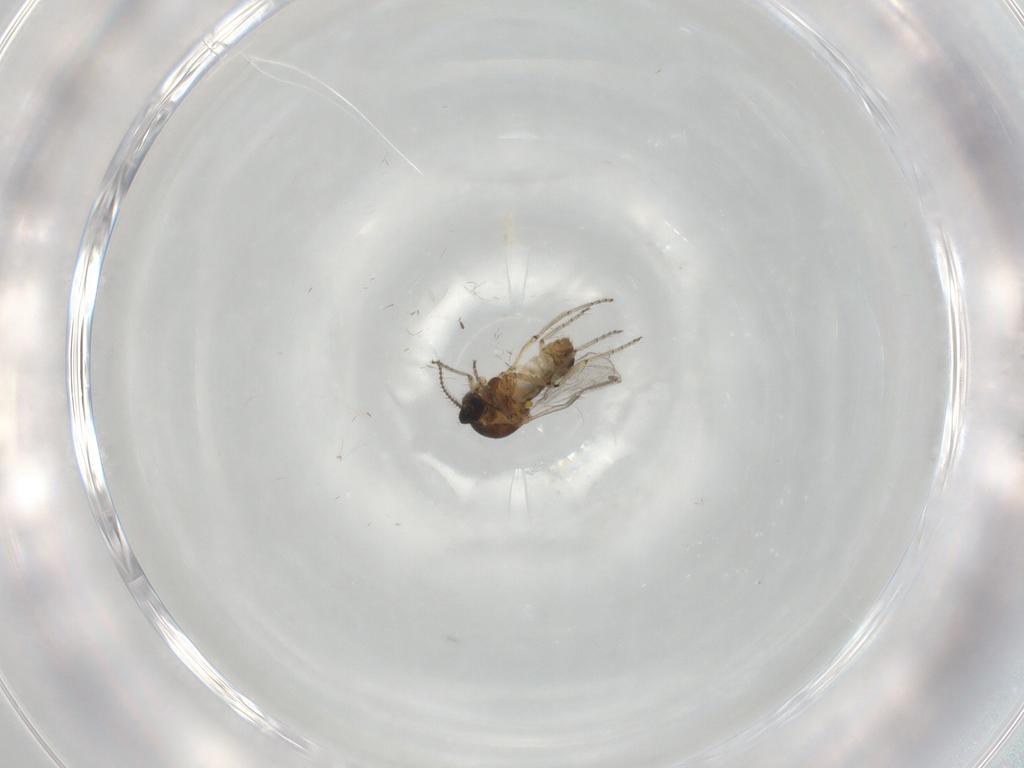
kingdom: Animalia
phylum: Arthropoda
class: Insecta
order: Diptera
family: Ceratopogonidae
